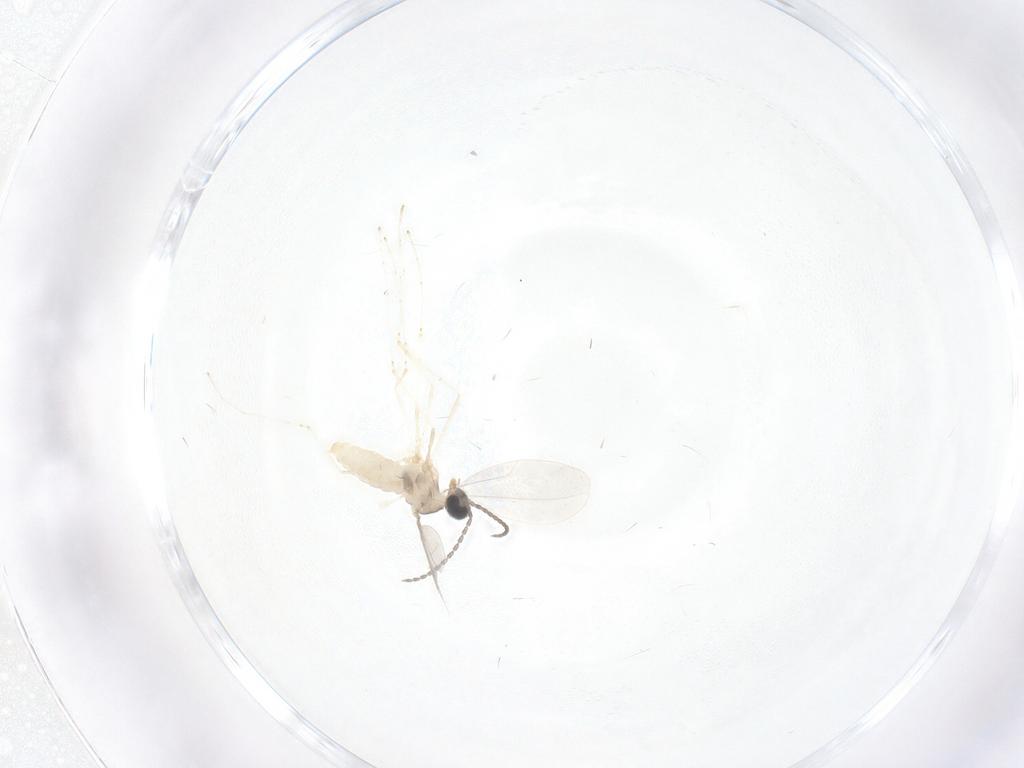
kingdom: Animalia
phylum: Arthropoda
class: Insecta
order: Diptera
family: Cecidomyiidae
